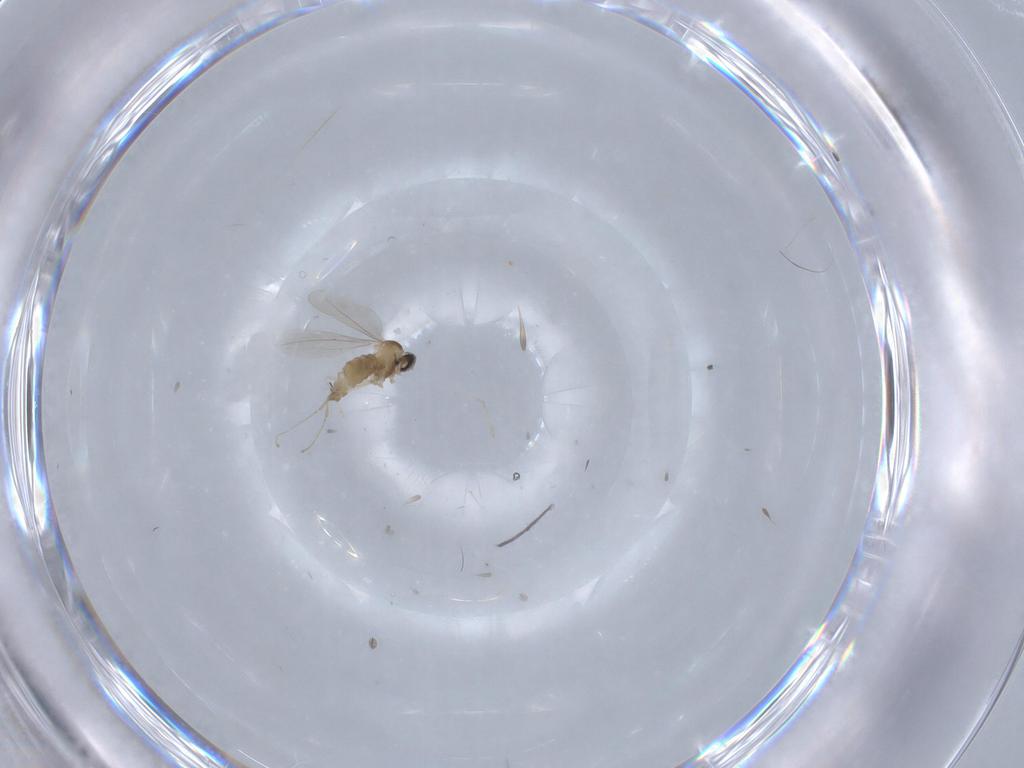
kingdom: Animalia
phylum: Arthropoda
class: Insecta
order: Diptera
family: Cecidomyiidae
